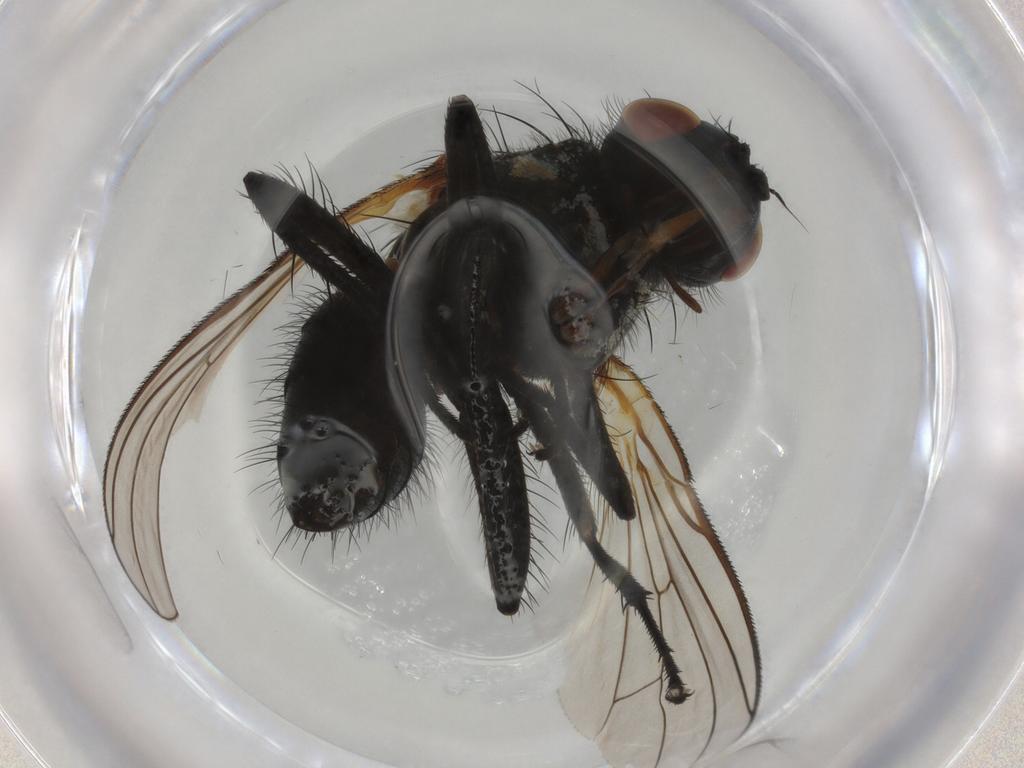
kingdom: Animalia
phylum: Arthropoda
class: Insecta
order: Diptera
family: Anthomyiidae
